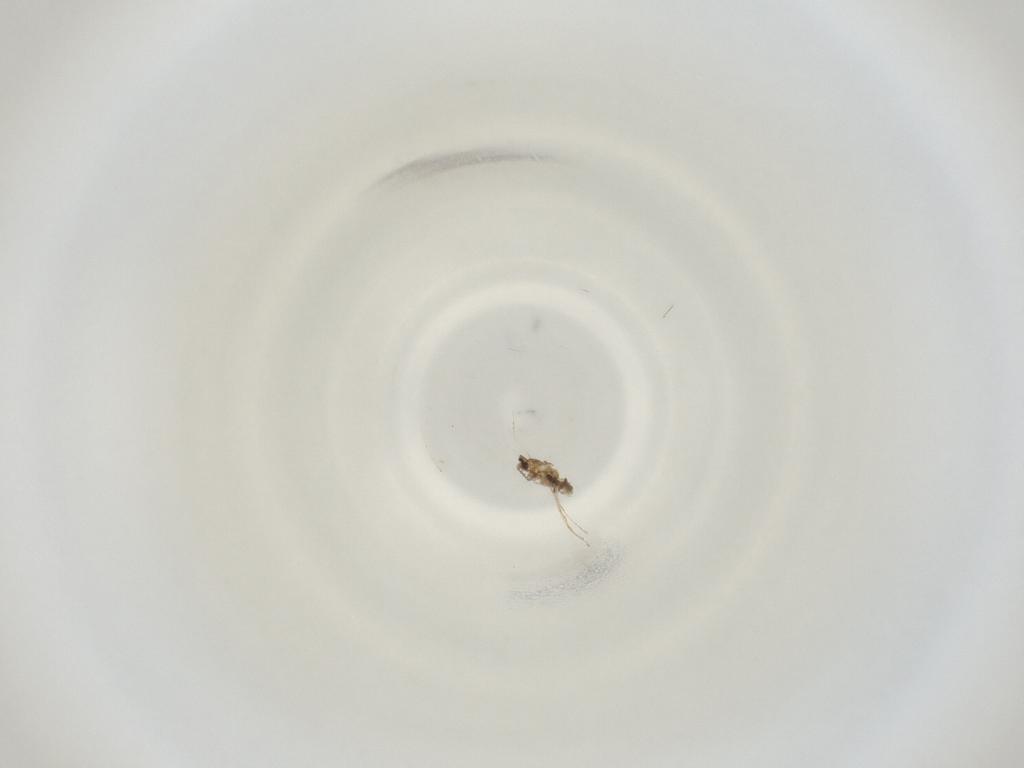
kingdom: Animalia
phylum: Arthropoda
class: Insecta
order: Diptera
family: Cecidomyiidae
